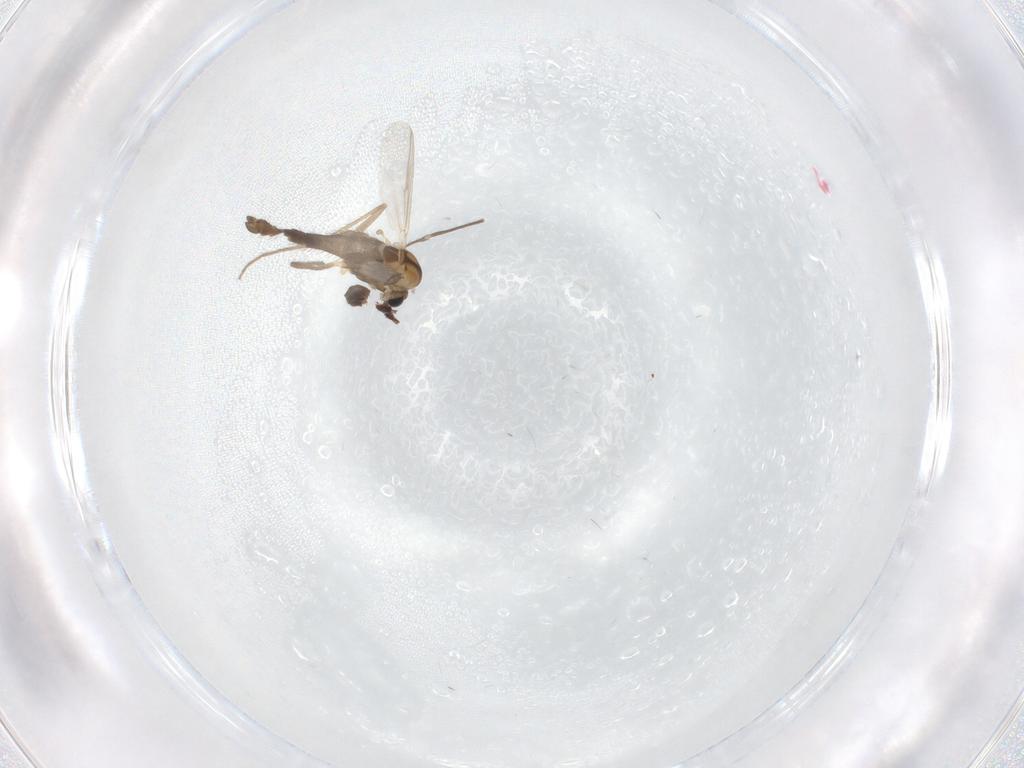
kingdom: Animalia
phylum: Arthropoda
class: Insecta
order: Diptera
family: Chironomidae
